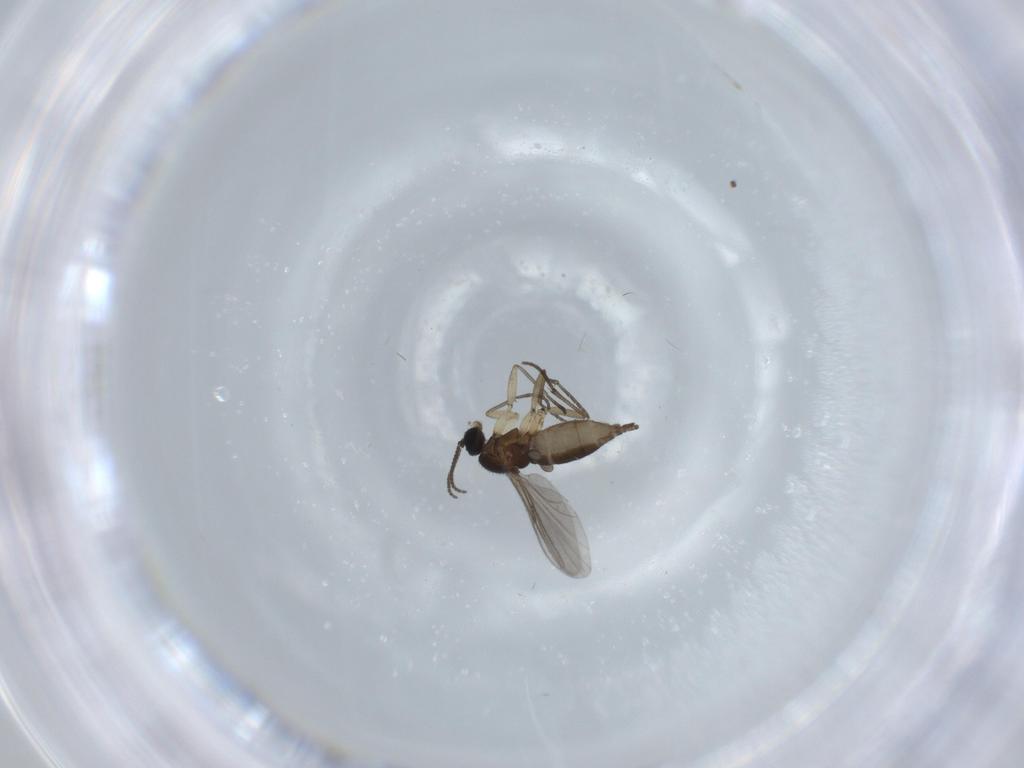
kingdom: Animalia
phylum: Arthropoda
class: Insecta
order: Diptera
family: Sciaridae
